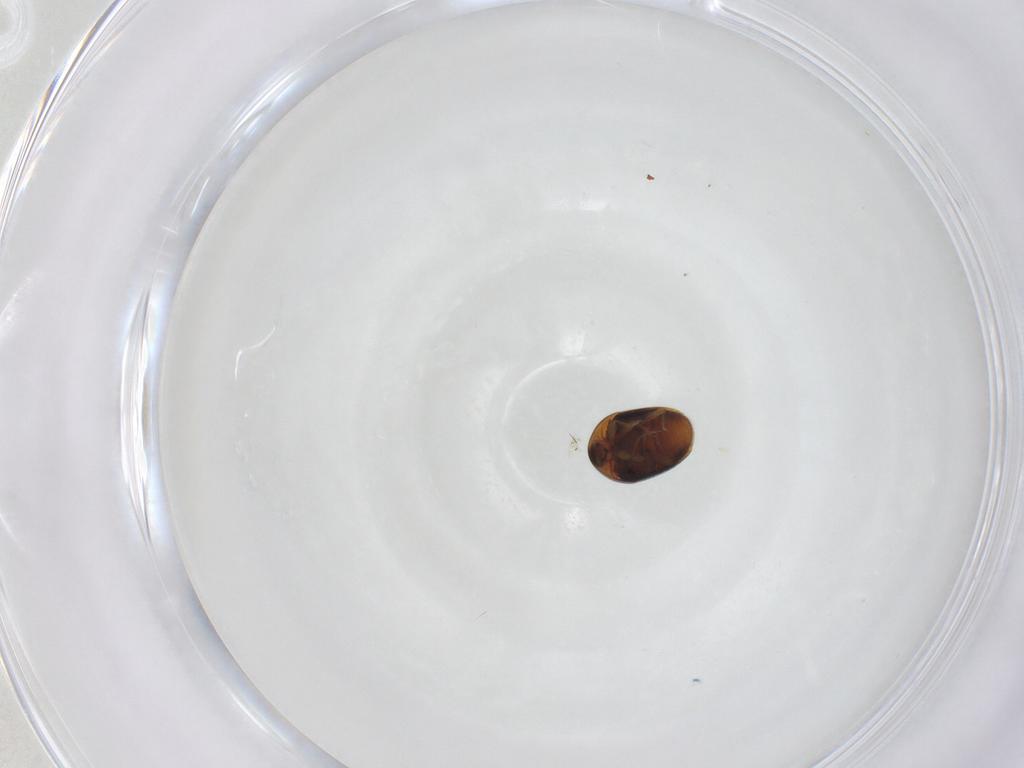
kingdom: Animalia
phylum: Arthropoda
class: Insecta
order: Coleoptera
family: Corylophidae
